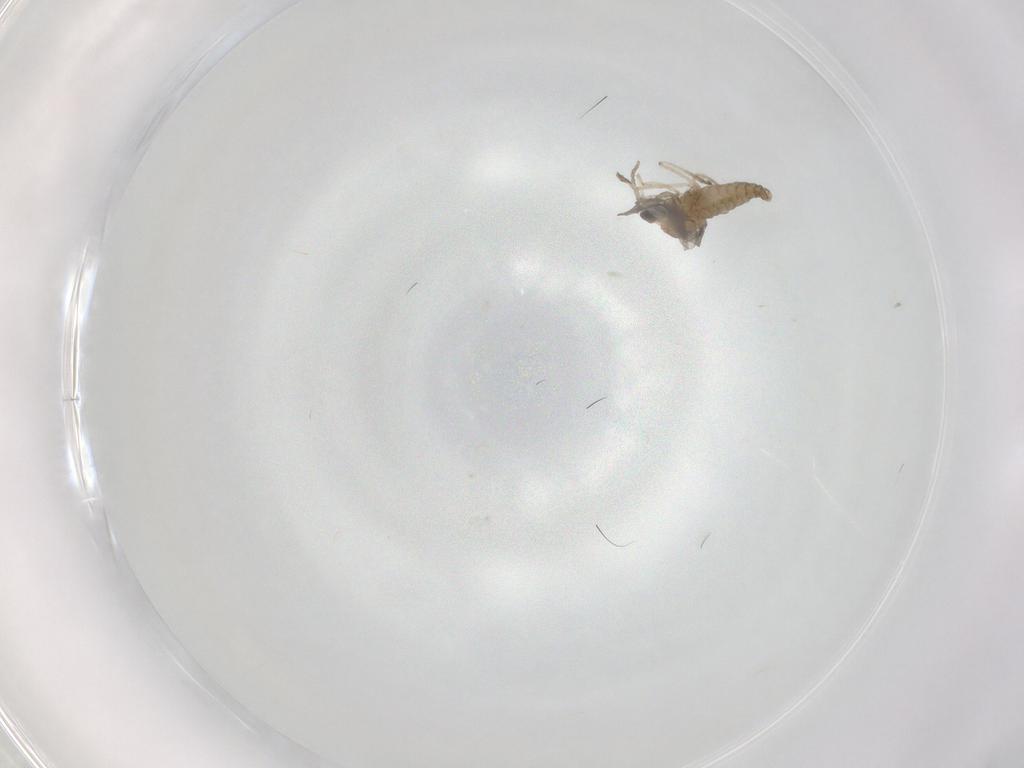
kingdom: Animalia
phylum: Arthropoda
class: Insecta
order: Diptera
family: Cecidomyiidae
